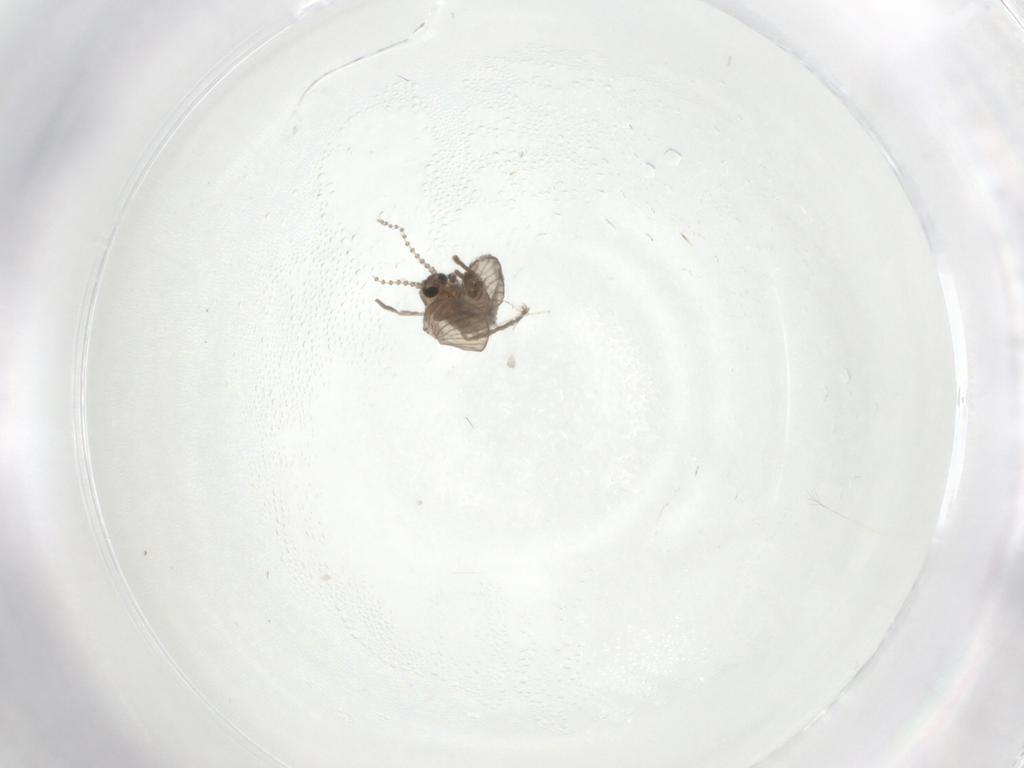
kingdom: Animalia
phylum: Arthropoda
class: Insecta
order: Diptera
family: Psychodidae
